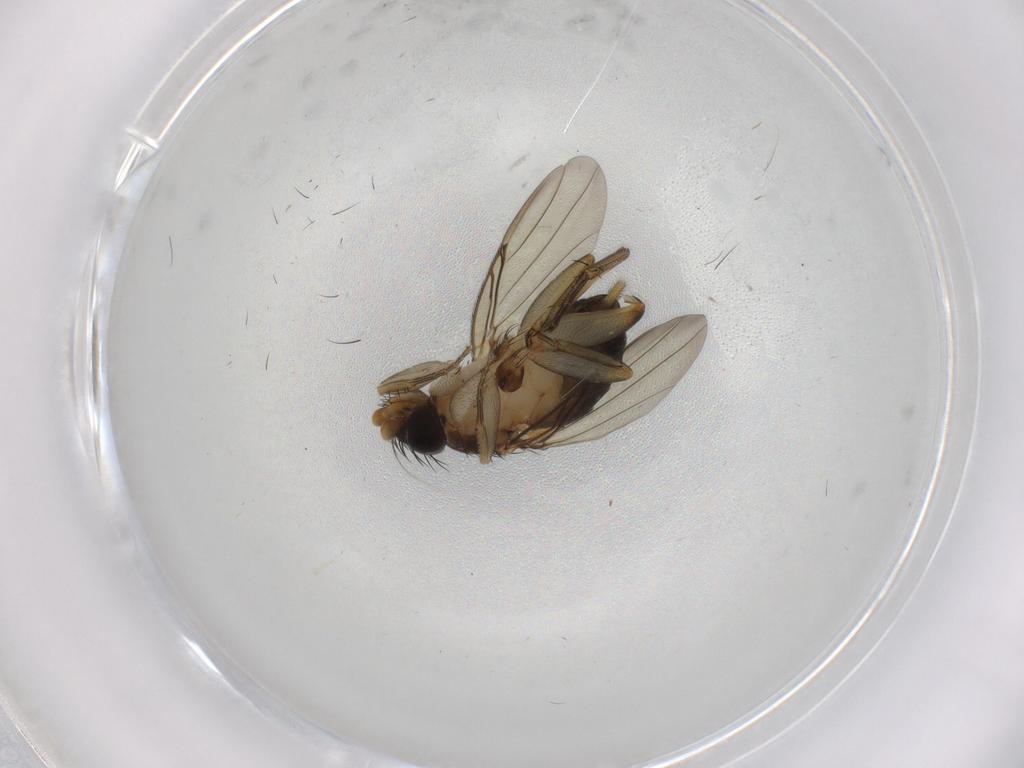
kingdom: Animalia
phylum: Arthropoda
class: Insecta
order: Diptera
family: Phoridae
